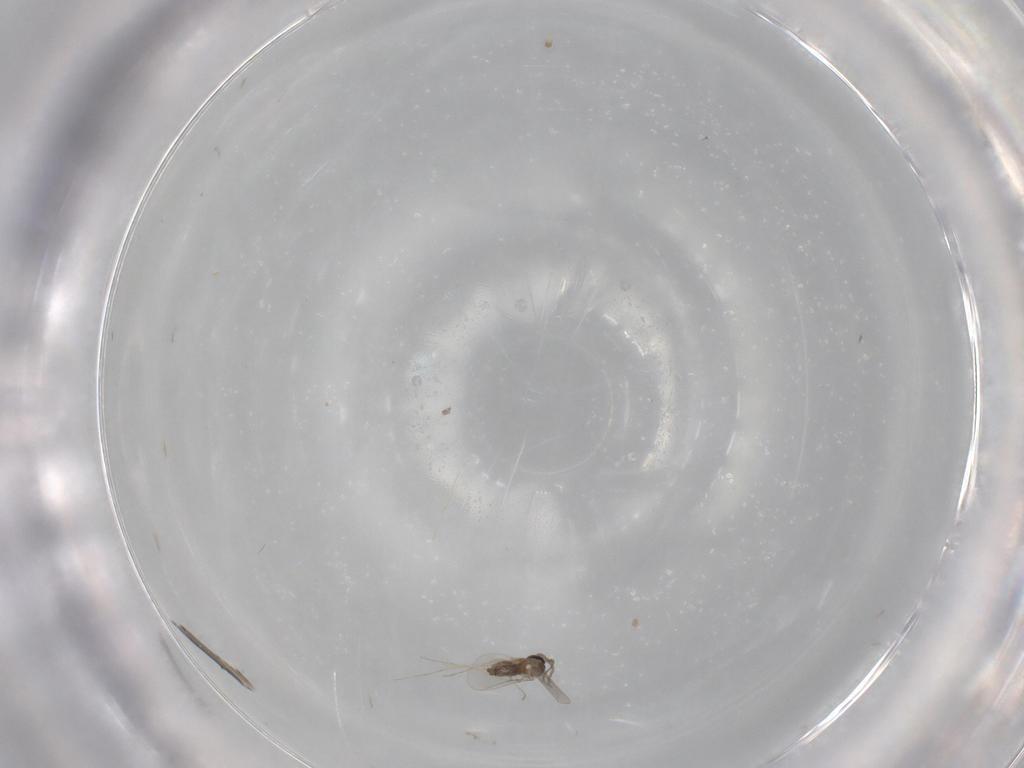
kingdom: Animalia
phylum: Arthropoda
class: Insecta
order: Diptera
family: Cecidomyiidae
